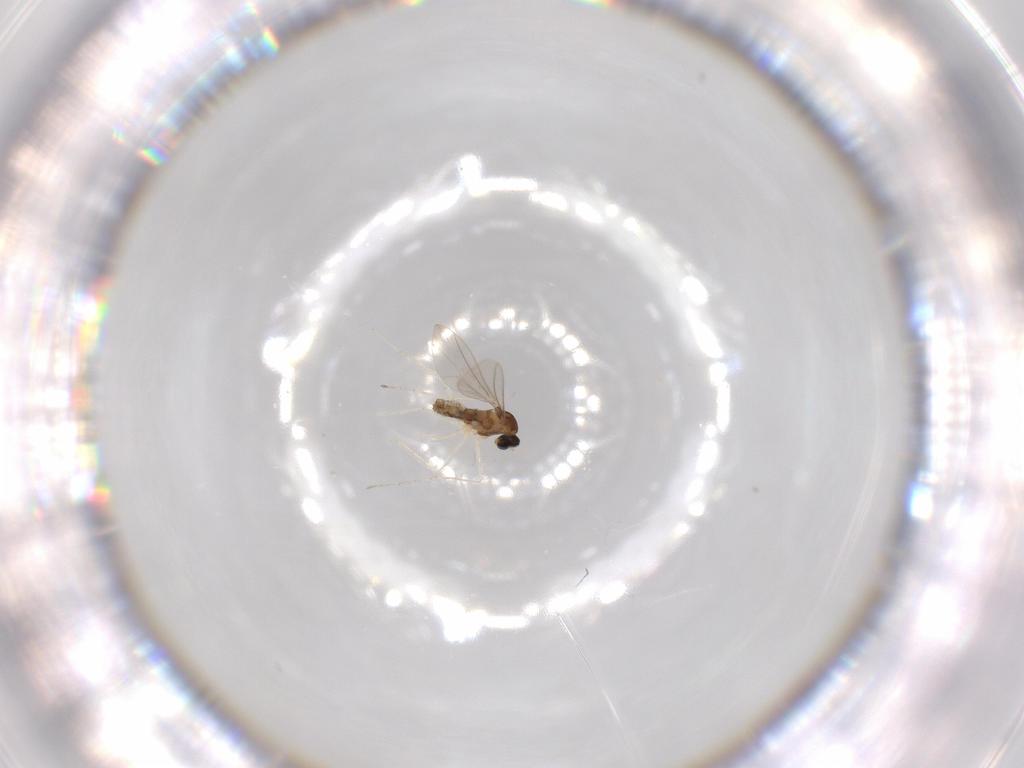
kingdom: Animalia
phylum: Arthropoda
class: Insecta
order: Diptera
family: Cecidomyiidae
